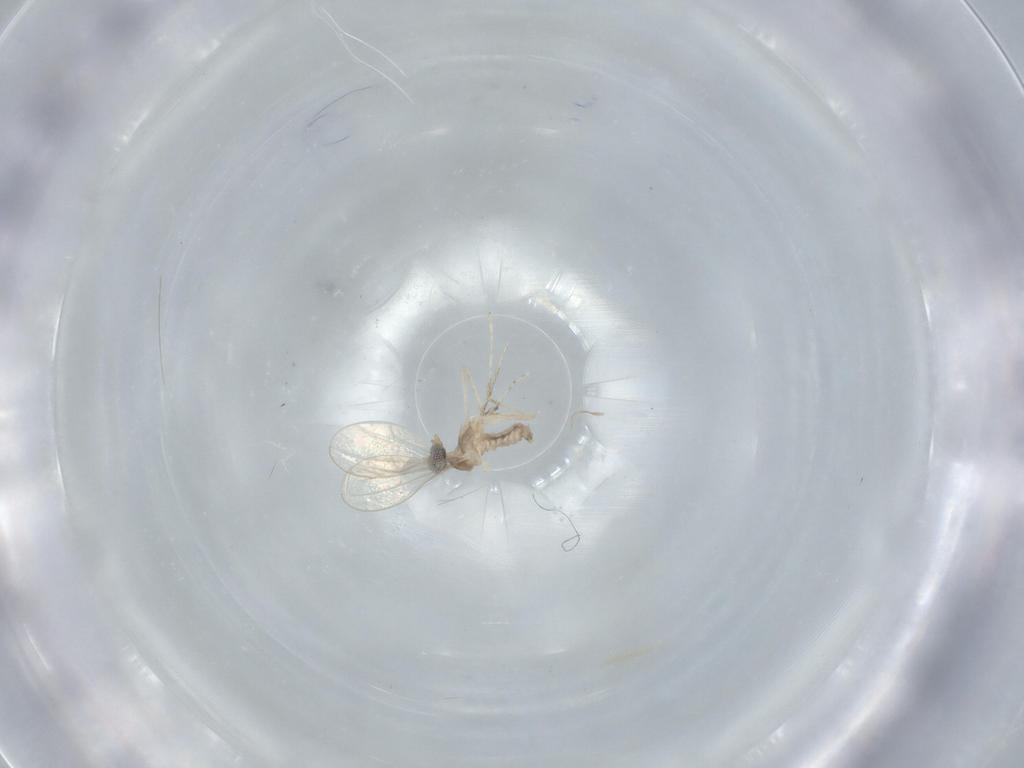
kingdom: Animalia
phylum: Arthropoda
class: Insecta
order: Diptera
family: Cecidomyiidae
